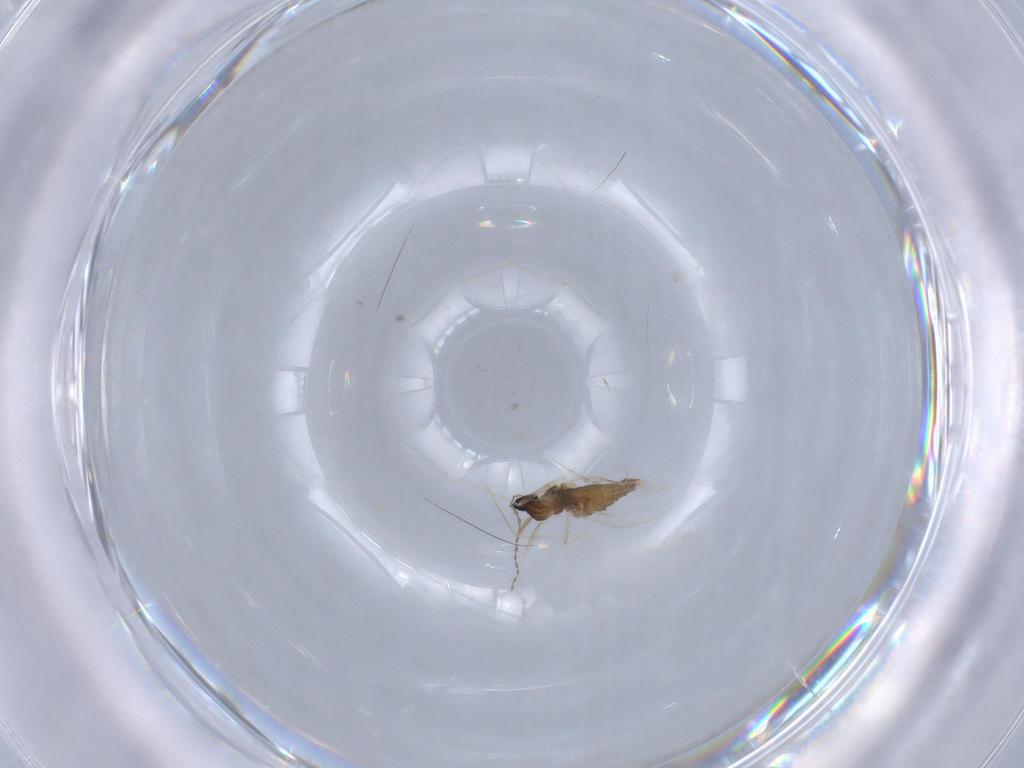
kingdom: Animalia
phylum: Arthropoda
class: Insecta
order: Diptera
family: Cecidomyiidae
